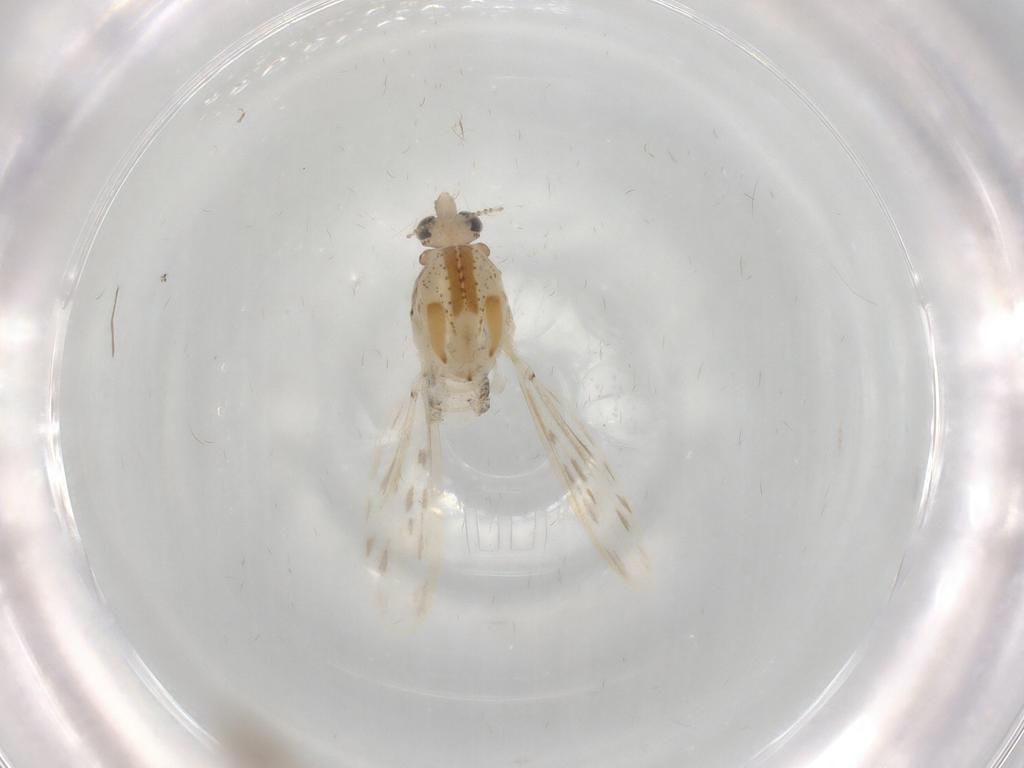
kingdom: Animalia
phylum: Arthropoda
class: Insecta
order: Diptera
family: Chaoboridae
